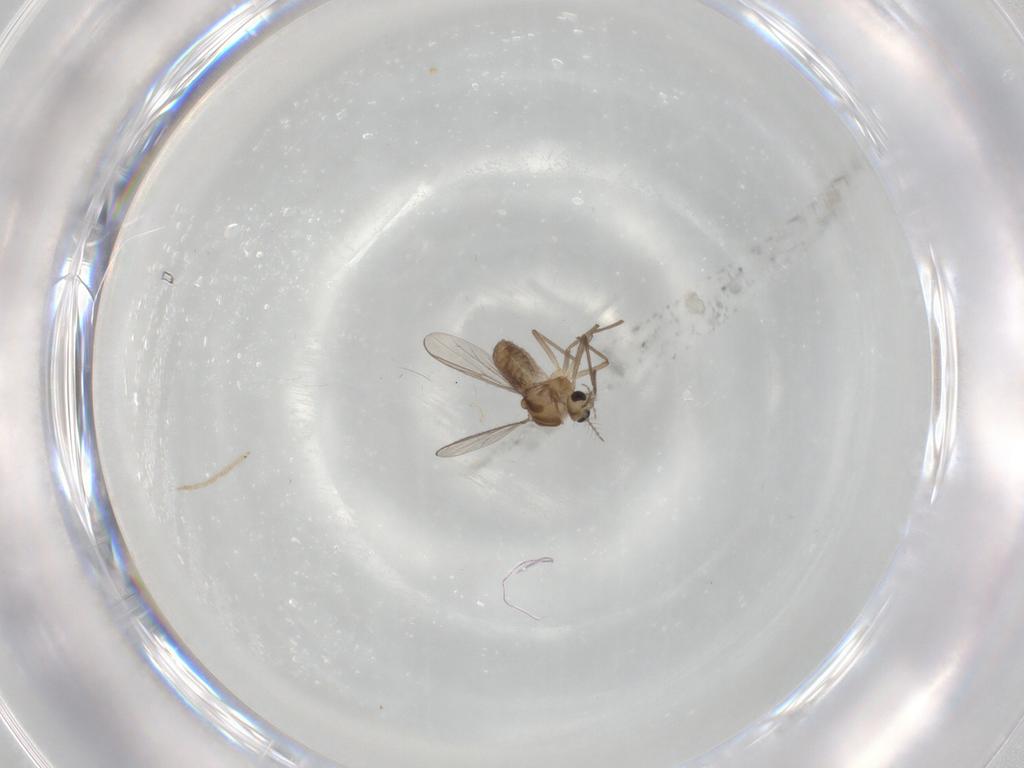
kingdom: Animalia
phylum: Arthropoda
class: Insecta
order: Diptera
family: Chironomidae
